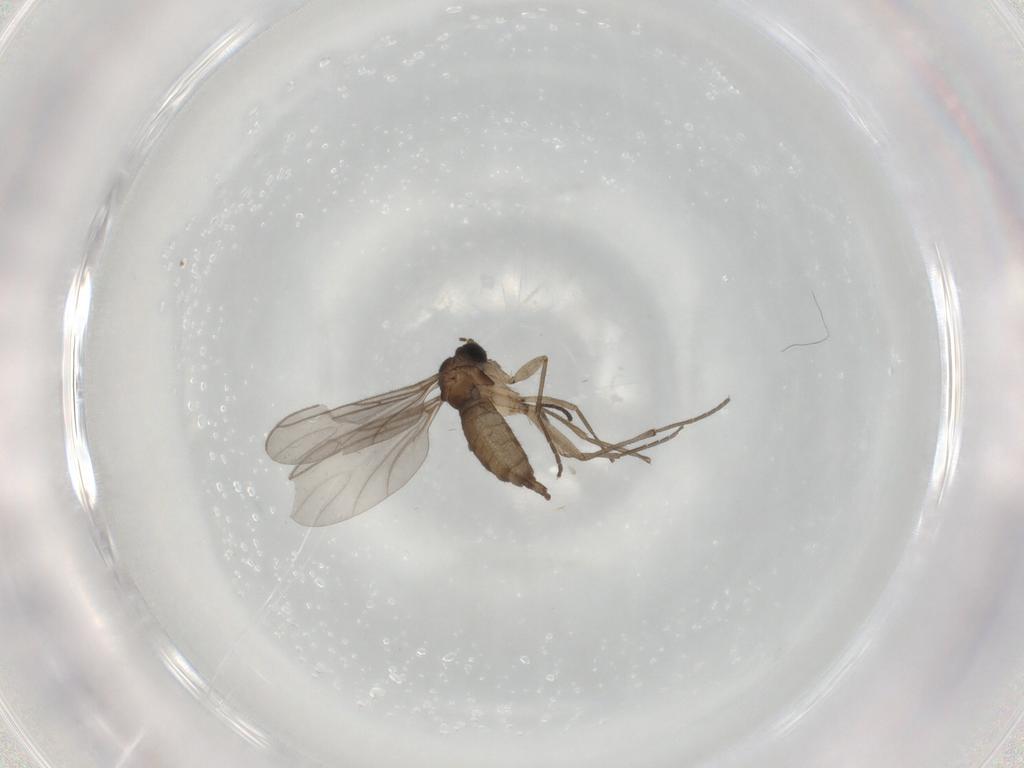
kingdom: Animalia
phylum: Arthropoda
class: Insecta
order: Diptera
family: Sciaridae
